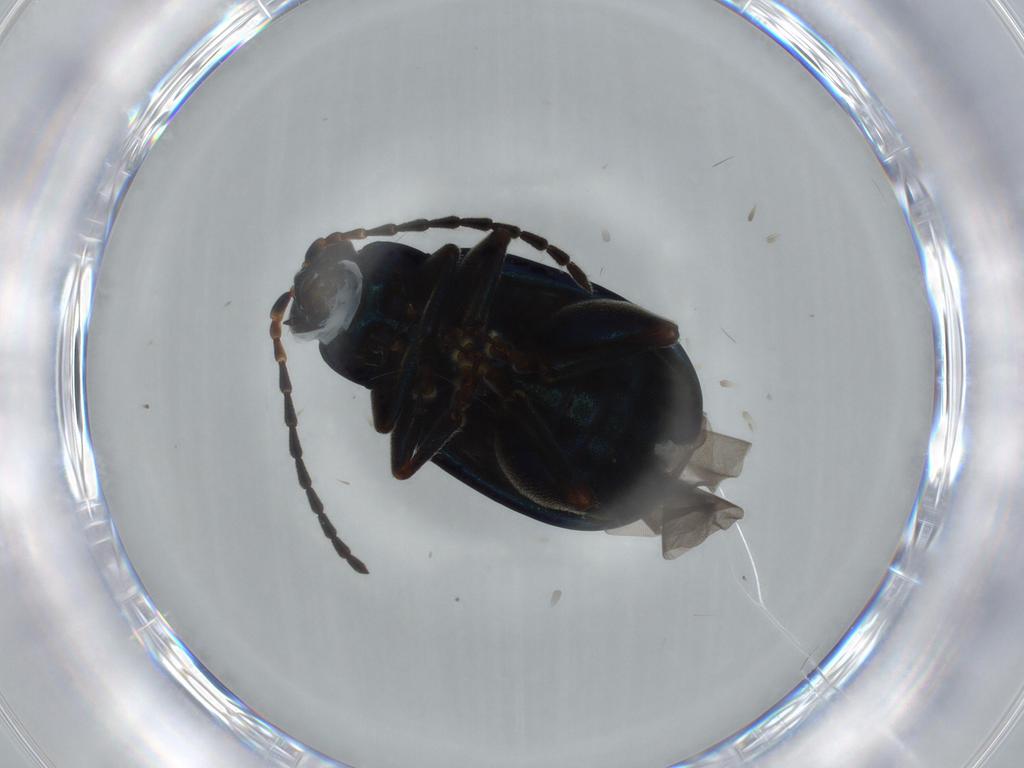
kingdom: Animalia
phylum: Arthropoda
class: Insecta
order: Coleoptera
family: Chrysomelidae
